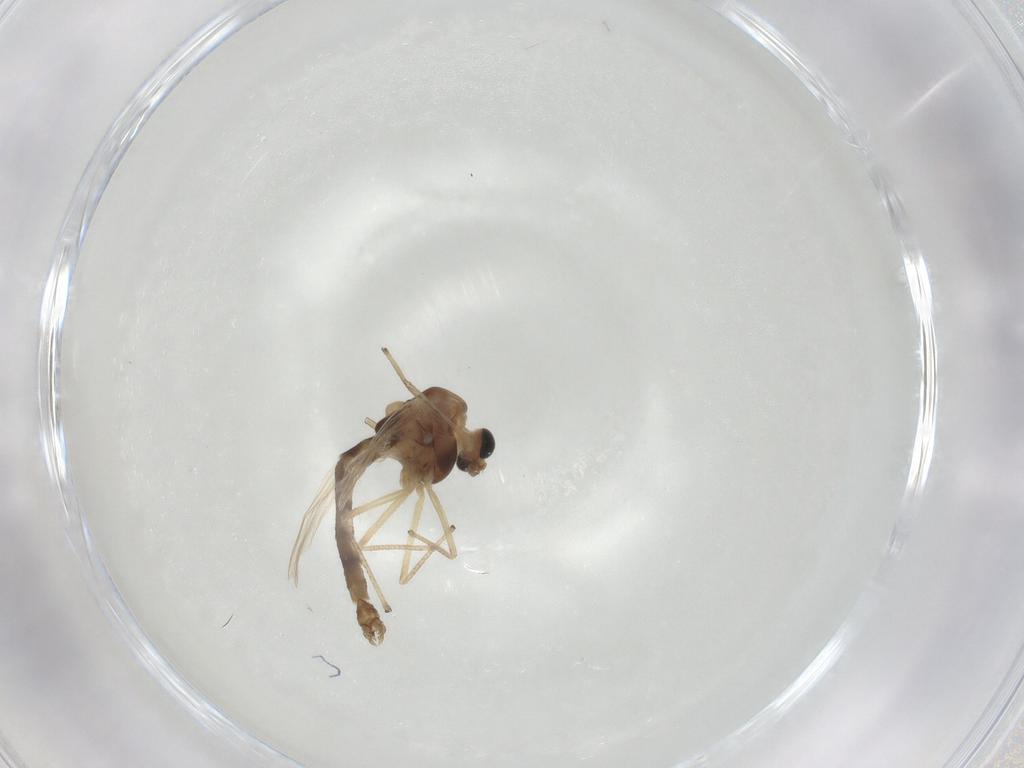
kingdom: Animalia
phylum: Arthropoda
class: Insecta
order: Diptera
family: Chironomidae
